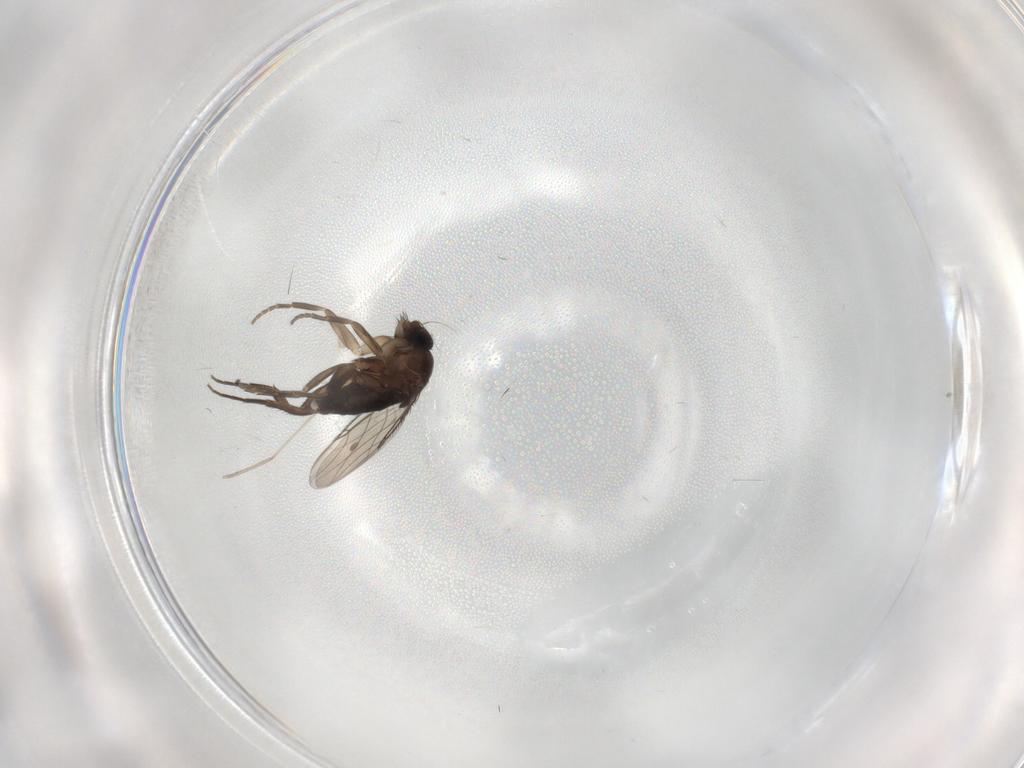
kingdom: Animalia
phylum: Arthropoda
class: Insecta
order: Diptera
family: Phoridae
